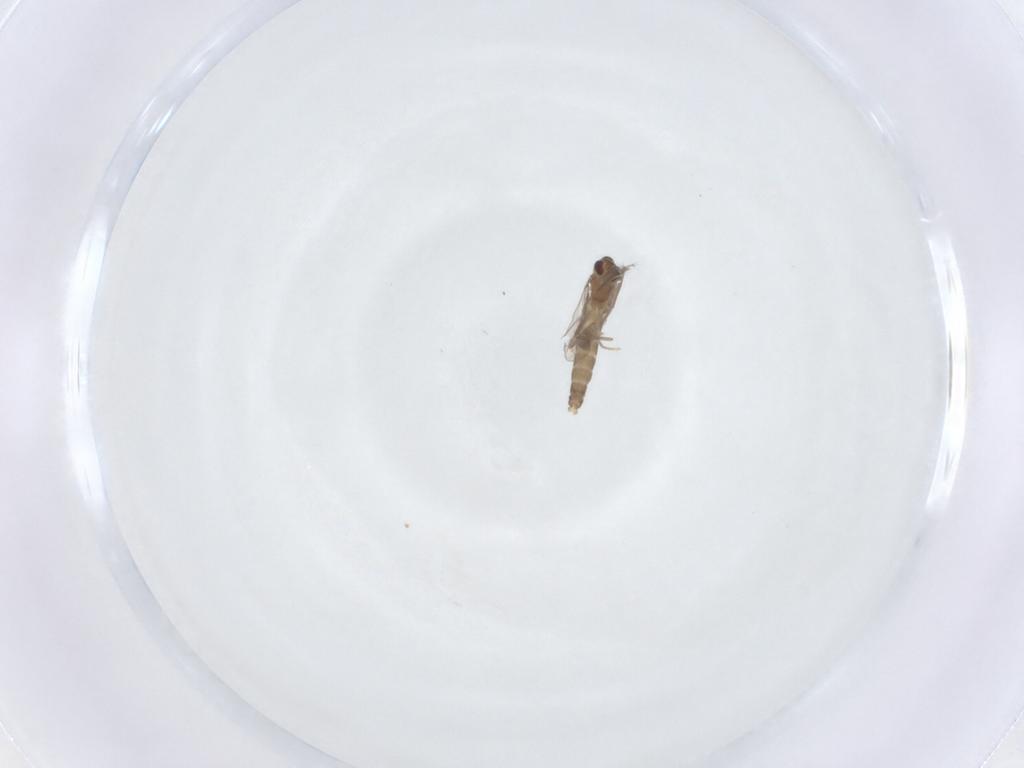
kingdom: Animalia
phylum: Arthropoda
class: Insecta
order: Diptera
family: Chironomidae
